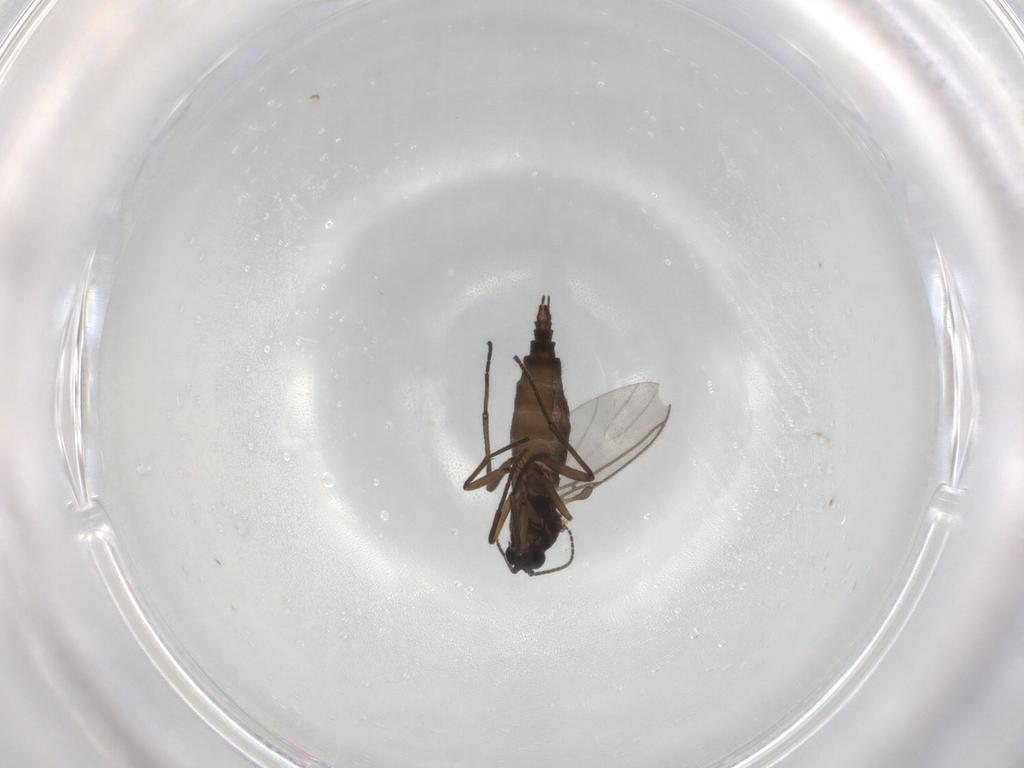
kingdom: Animalia
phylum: Arthropoda
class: Insecta
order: Diptera
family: Sciaridae
